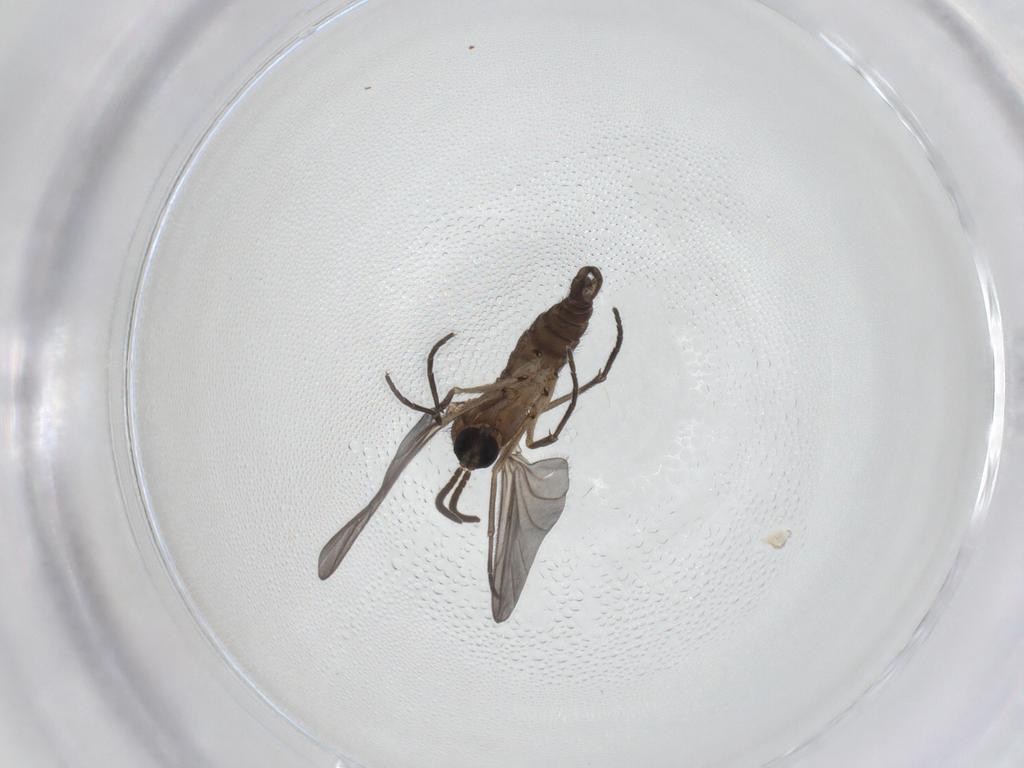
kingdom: Animalia
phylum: Arthropoda
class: Insecta
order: Diptera
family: Sciaridae
